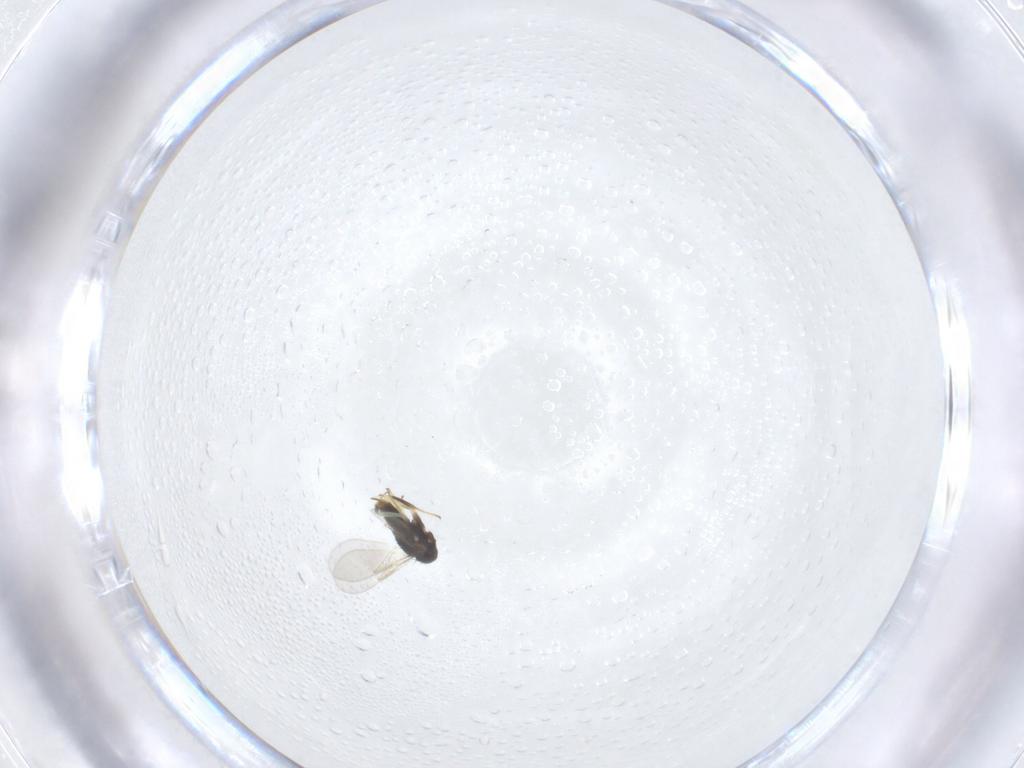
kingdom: Animalia
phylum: Arthropoda
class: Insecta
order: Hymenoptera
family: Aphelinidae
